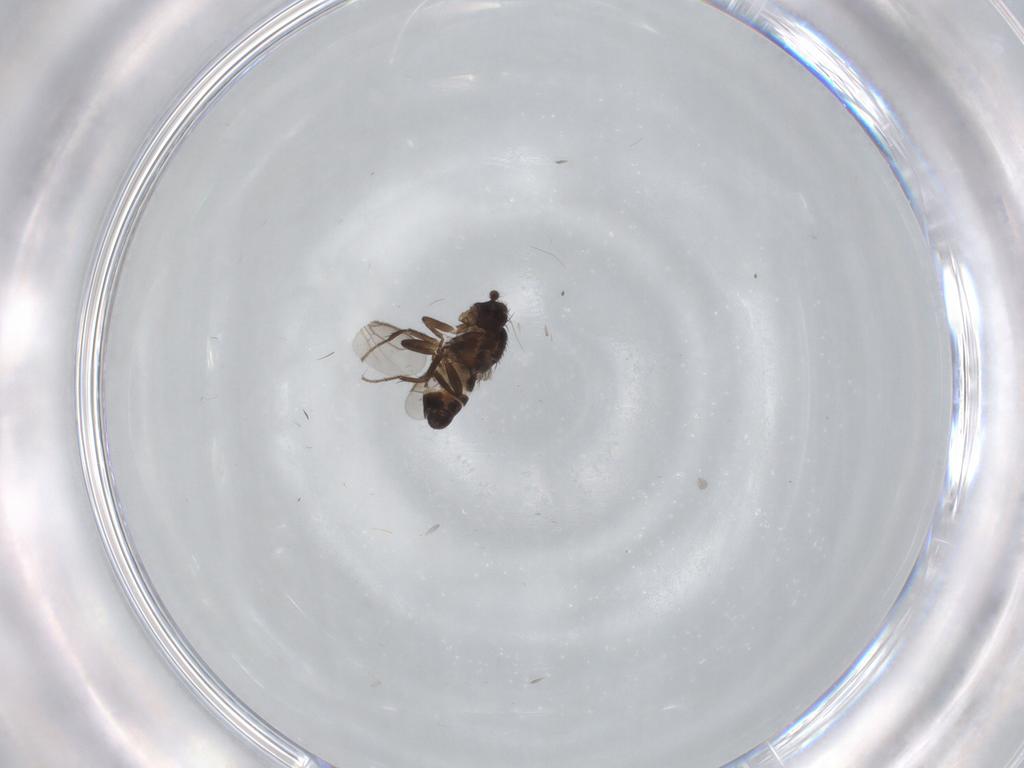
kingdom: Animalia
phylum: Arthropoda
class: Insecta
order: Diptera
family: Sphaeroceridae
